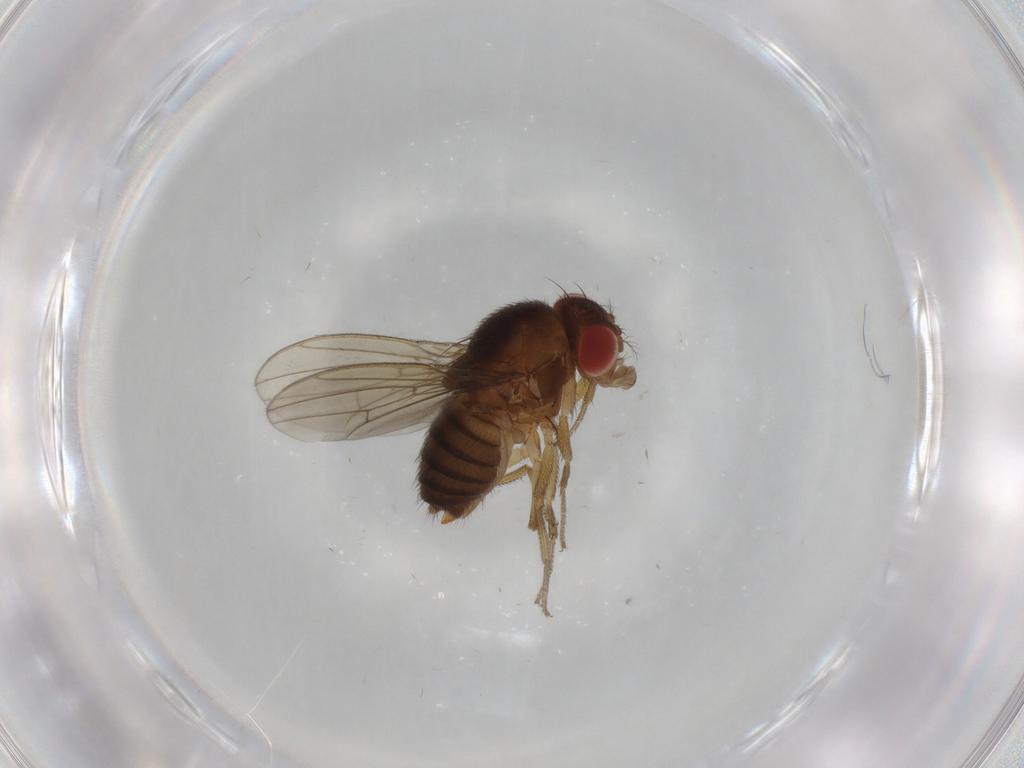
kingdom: Animalia
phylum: Arthropoda
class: Insecta
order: Diptera
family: Drosophilidae
